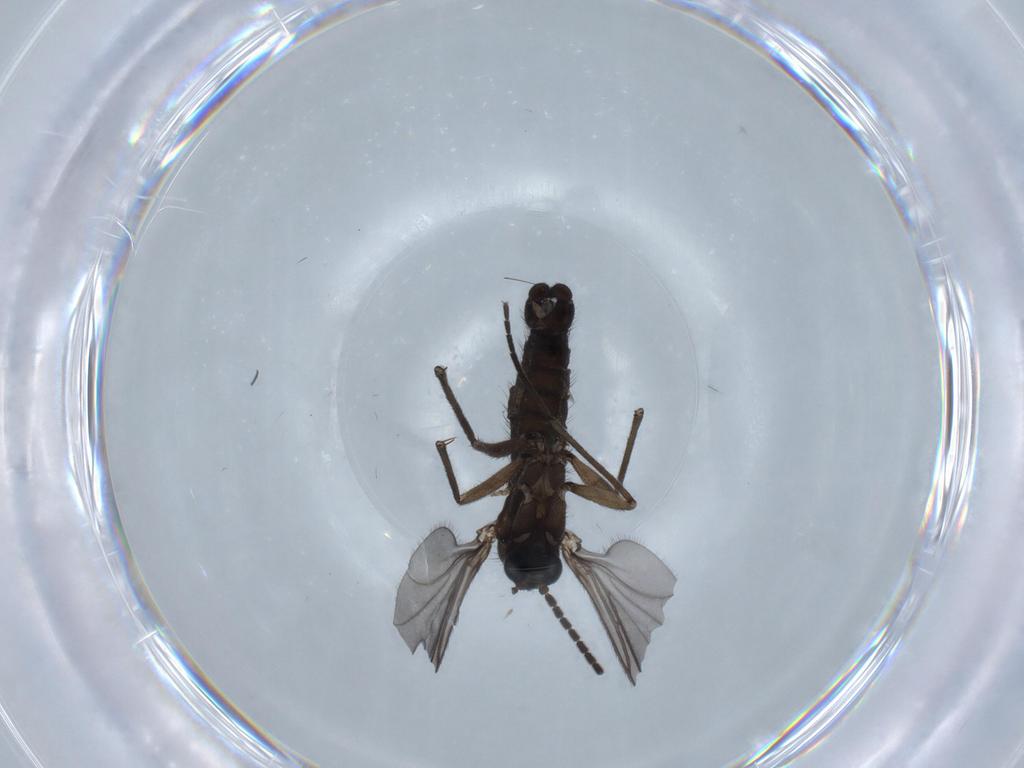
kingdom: Animalia
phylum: Arthropoda
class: Insecta
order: Diptera
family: Sciaridae
